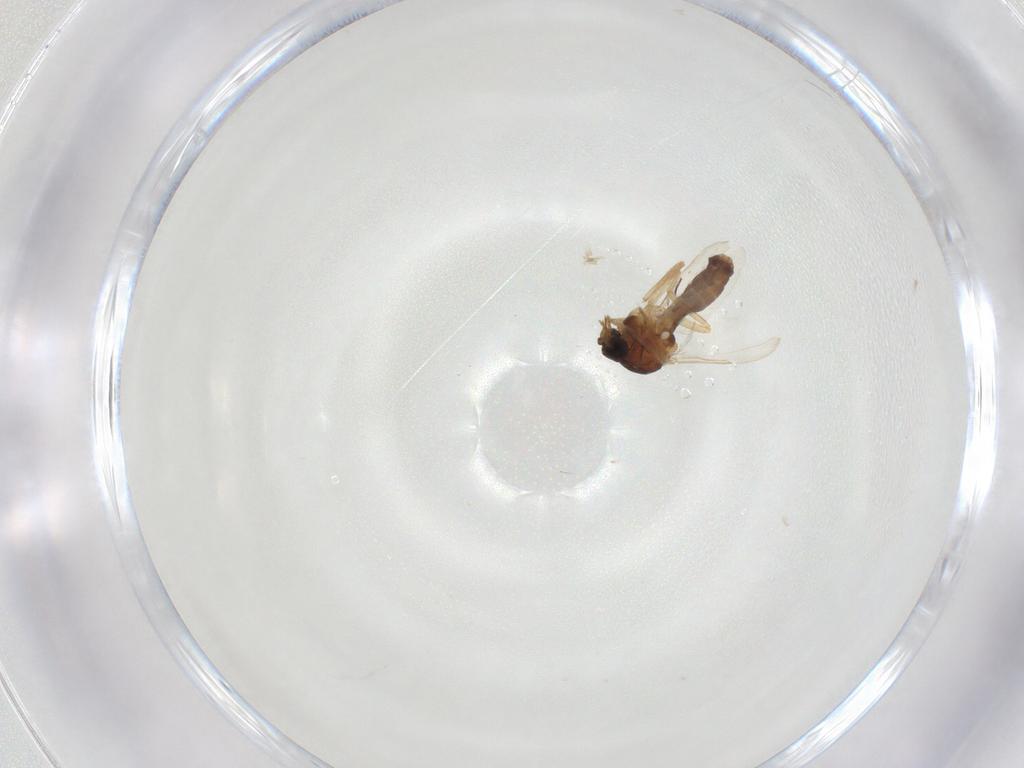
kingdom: Animalia
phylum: Arthropoda
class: Insecta
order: Diptera
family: Ceratopogonidae
